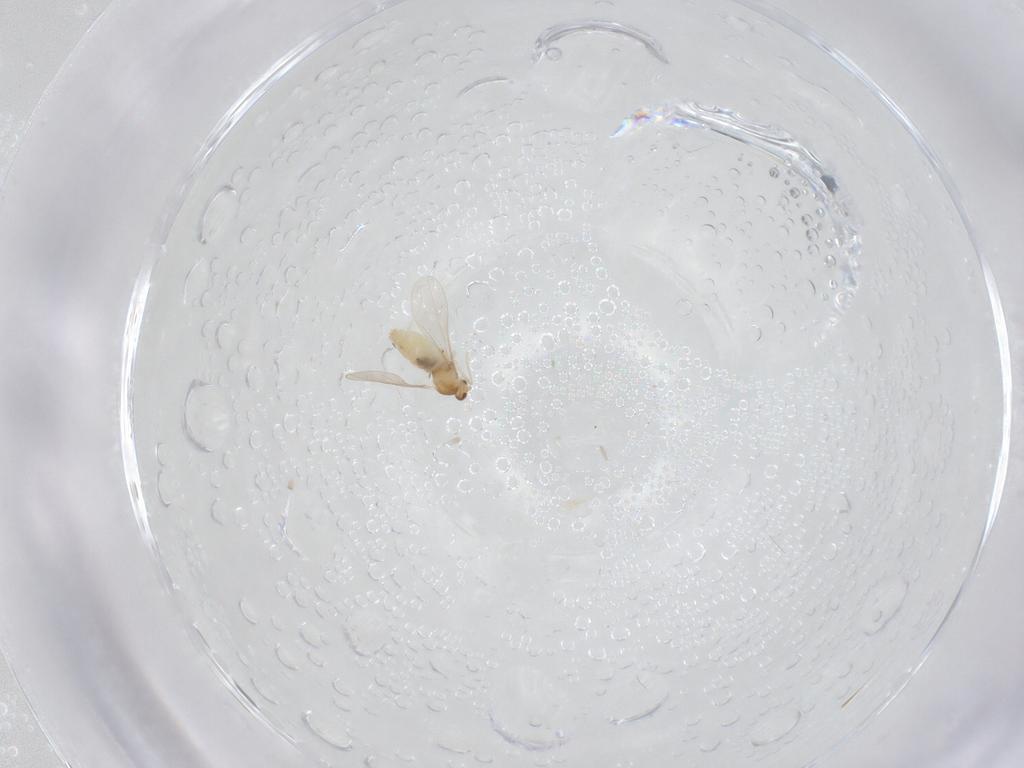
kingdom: Animalia
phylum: Arthropoda
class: Insecta
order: Diptera
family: Cecidomyiidae
